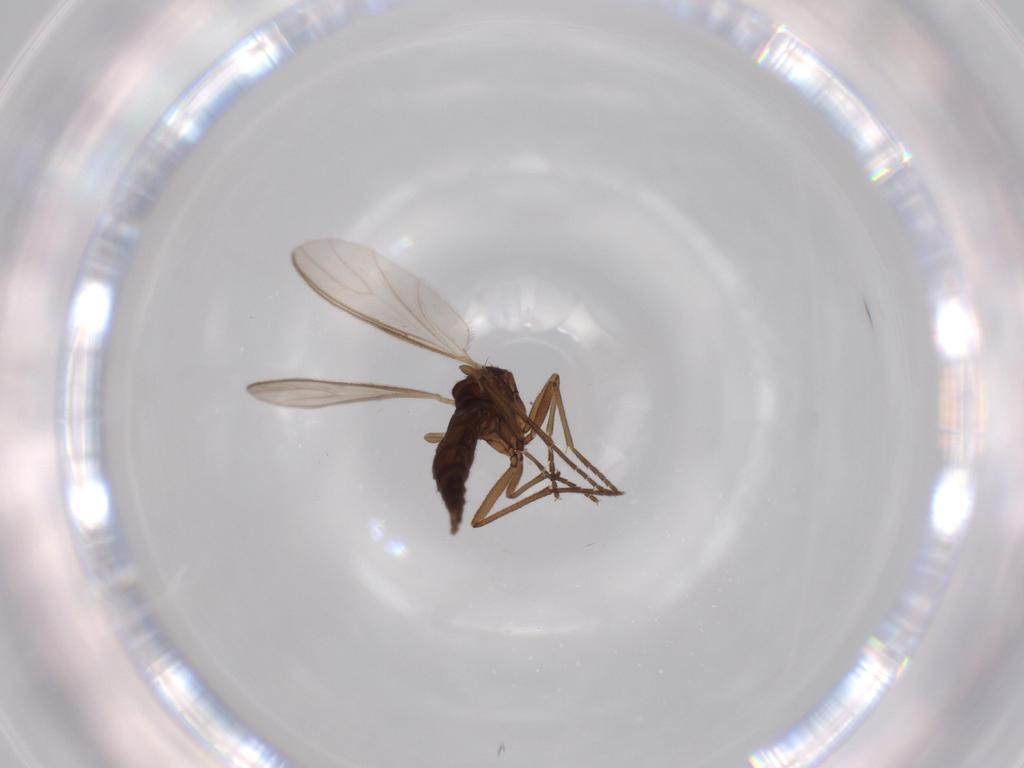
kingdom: Animalia
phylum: Arthropoda
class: Insecta
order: Diptera
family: Sciaridae
